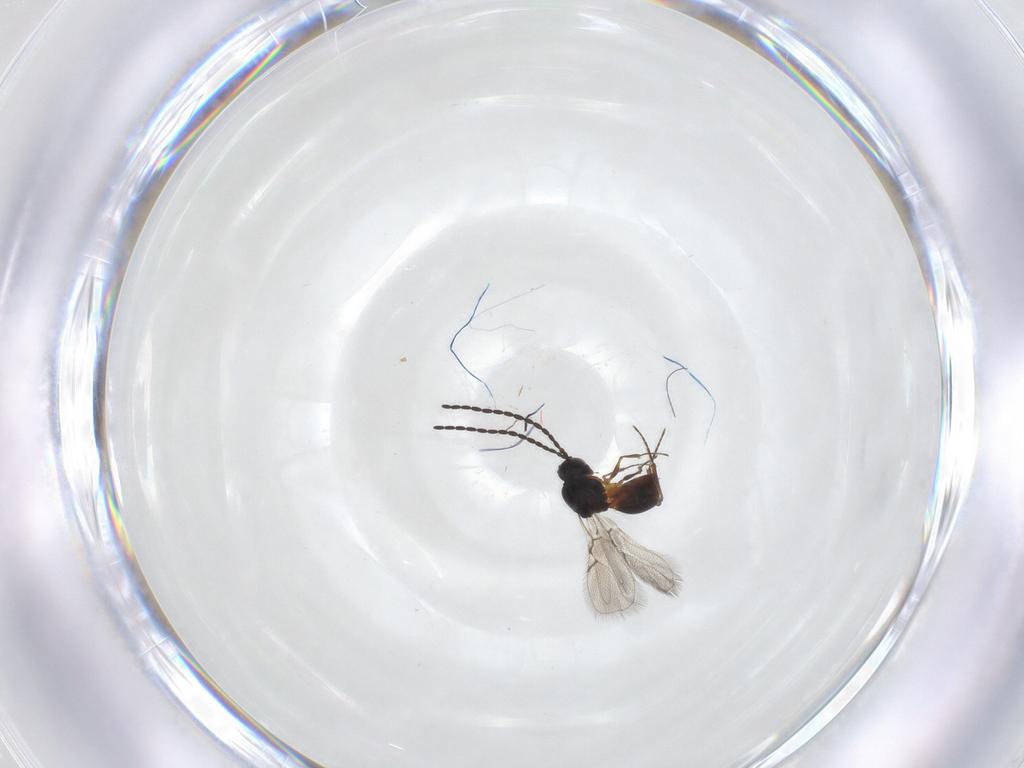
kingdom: Animalia
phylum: Arthropoda
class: Insecta
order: Hymenoptera
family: Figitidae
